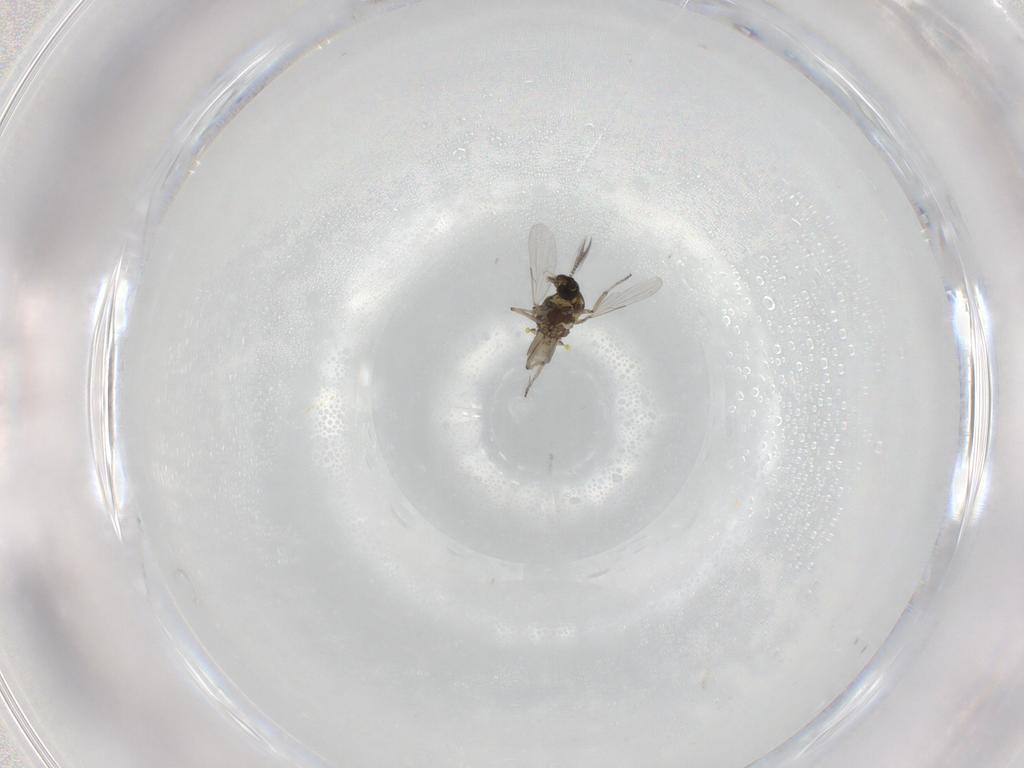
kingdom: Animalia
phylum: Arthropoda
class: Insecta
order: Diptera
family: Ceratopogonidae
